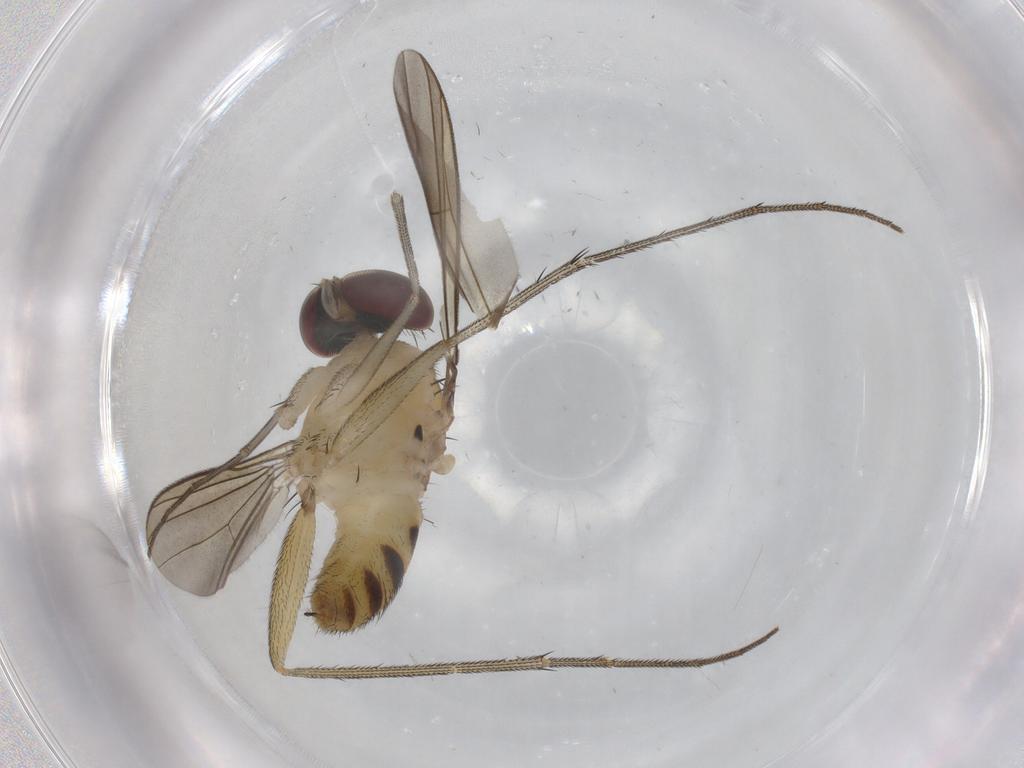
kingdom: Animalia
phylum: Arthropoda
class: Insecta
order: Diptera
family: Dolichopodidae
